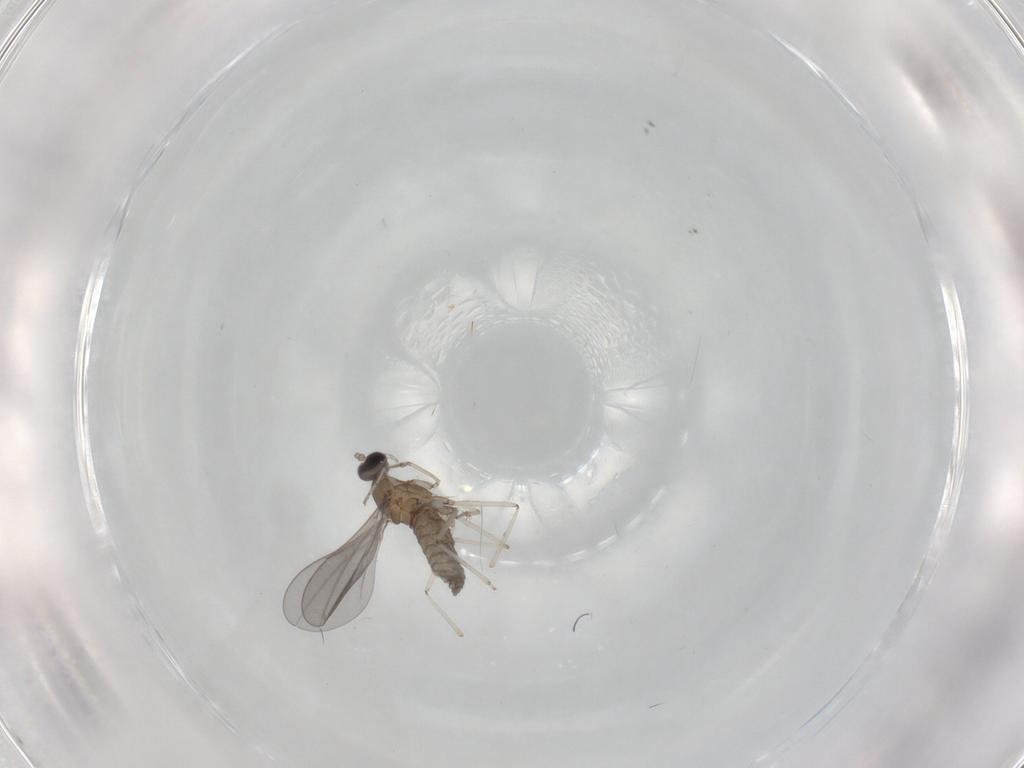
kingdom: Animalia
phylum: Arthropoda
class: Insecta
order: Diptera
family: Cecidomyiidae
